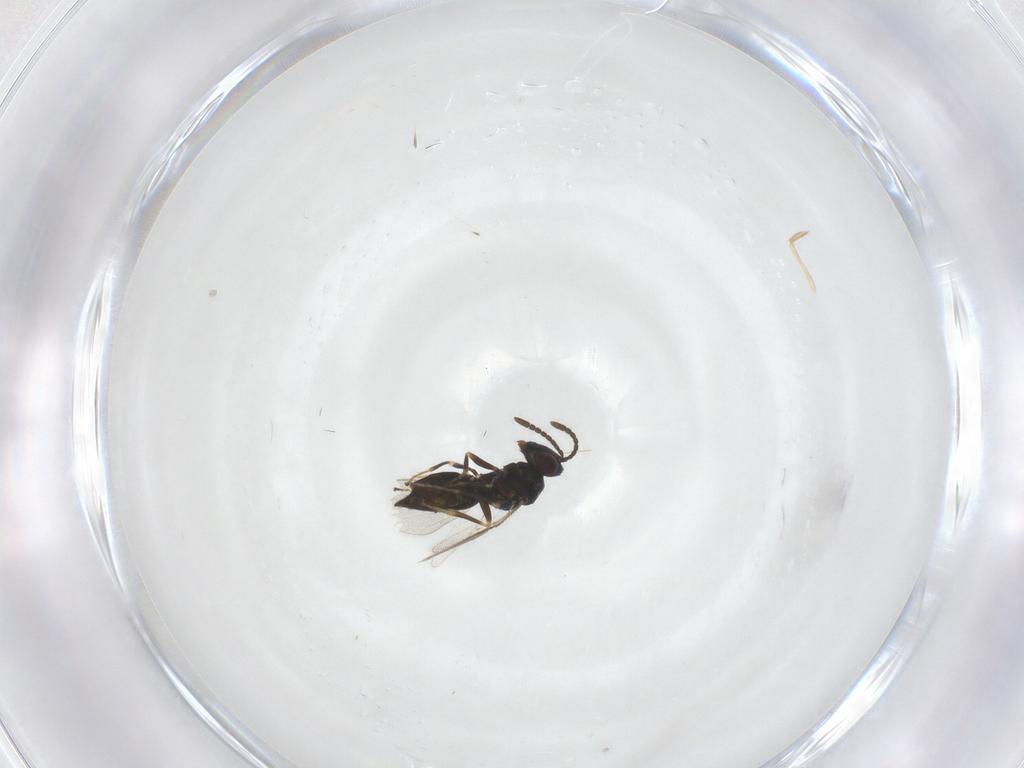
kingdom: Animalia
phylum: Arthropoda
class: Insecta
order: Hymenoptera
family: Pteromalidae
